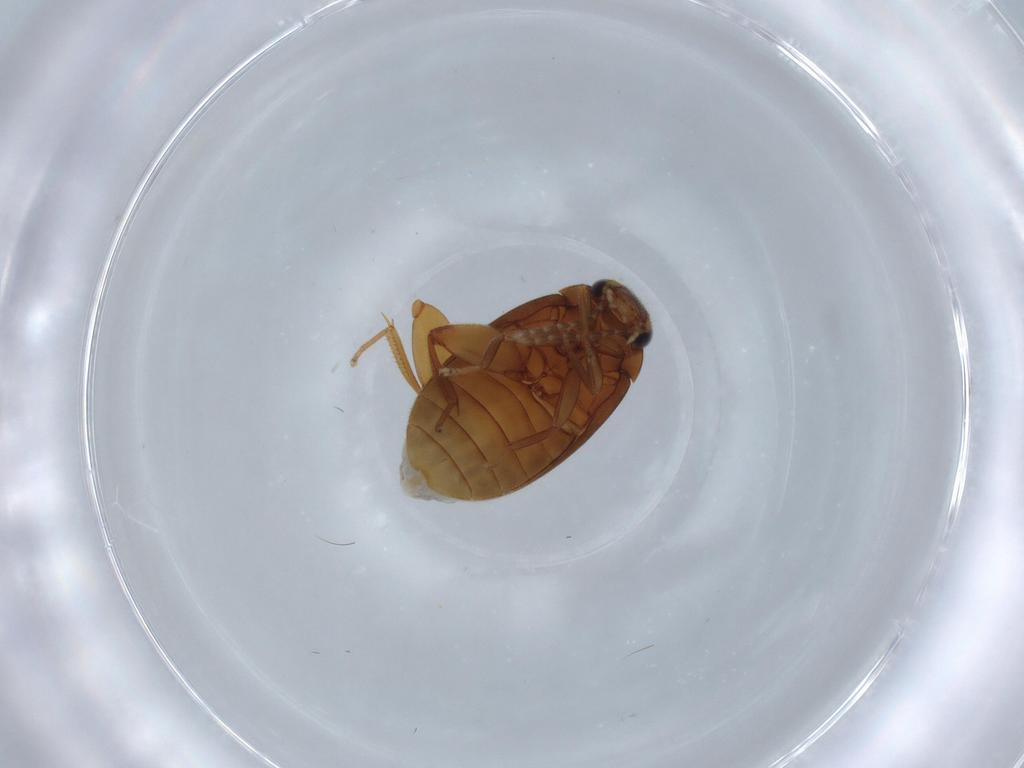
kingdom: Animalia
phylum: Arthropoda
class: Insecta
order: Coleoptera
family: Scirtidae
